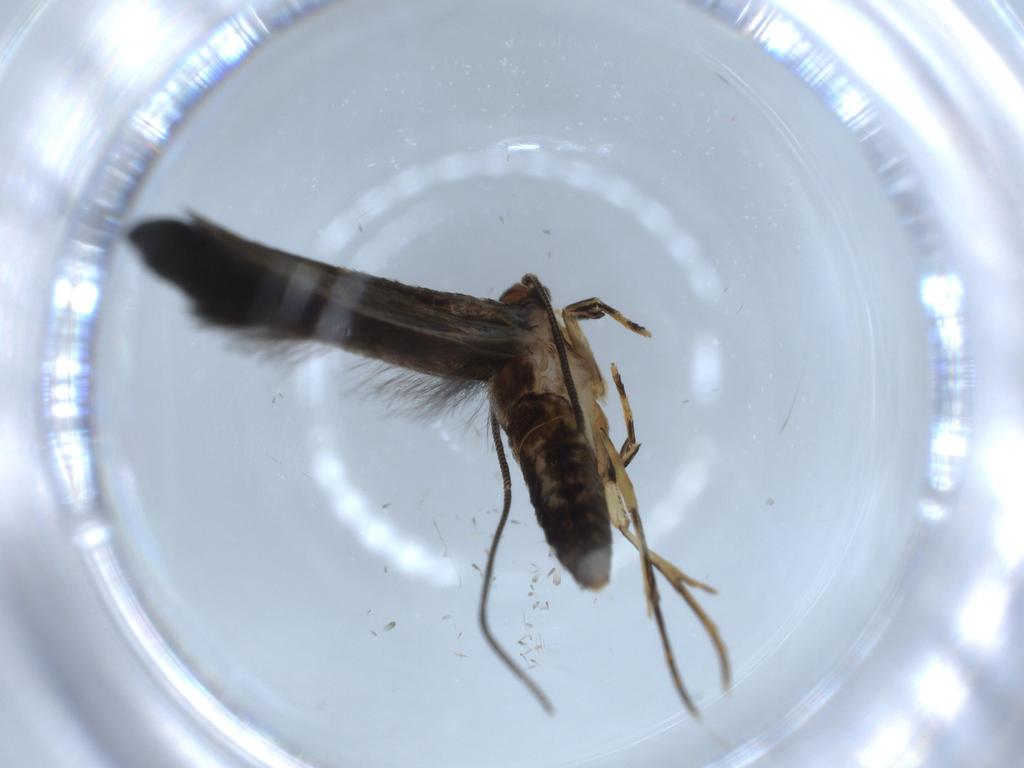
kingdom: Animalia
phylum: Arthropoda
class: Insecta
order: Lepidoptera
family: Tineidae
